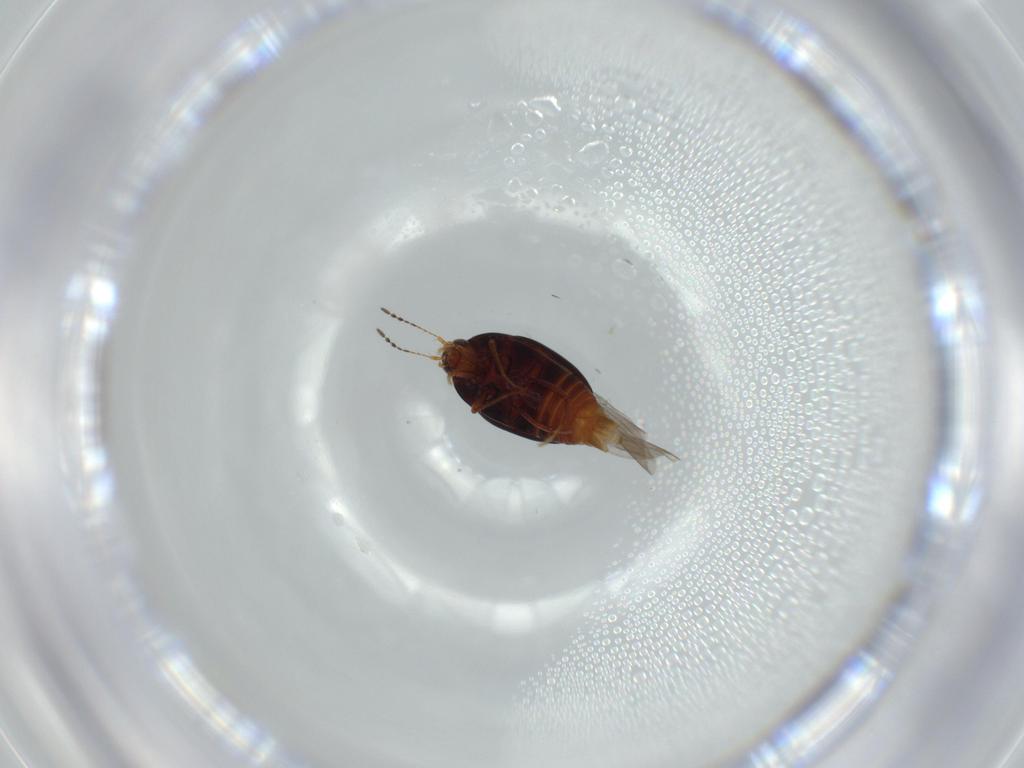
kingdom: Animalia
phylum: Arthropoda
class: Insecta
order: Coleoptera
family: Staphylinidae
